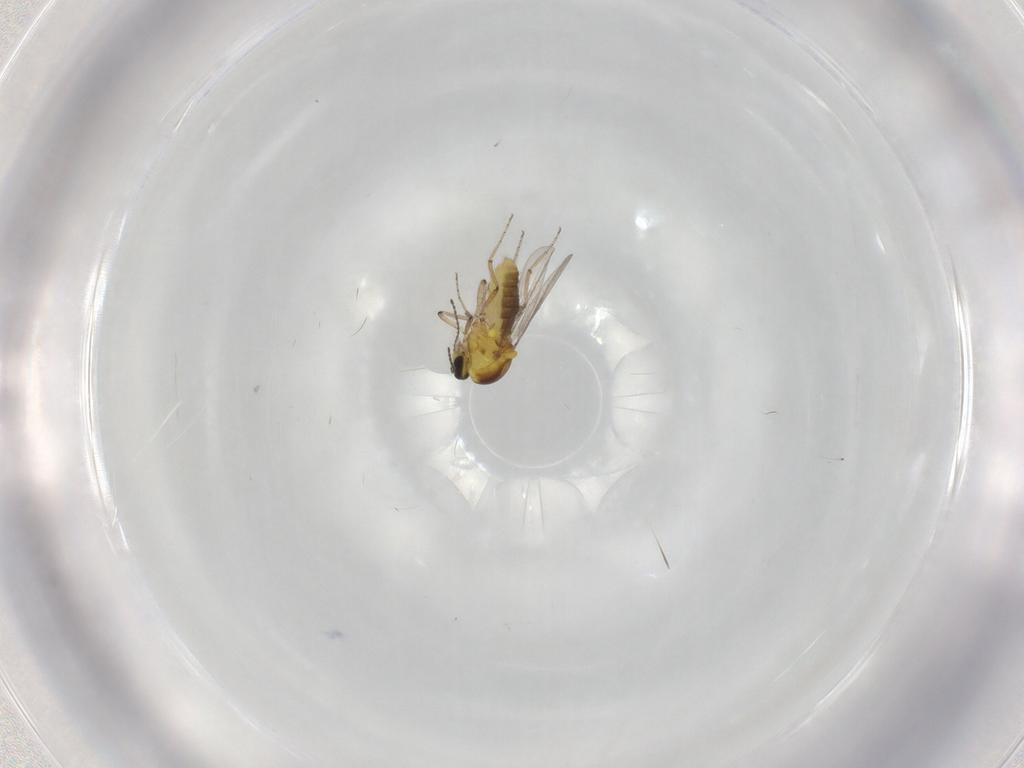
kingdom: Animalia
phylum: Arthropoda
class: Insecta
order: Diptera
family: Ceratopogonidae
